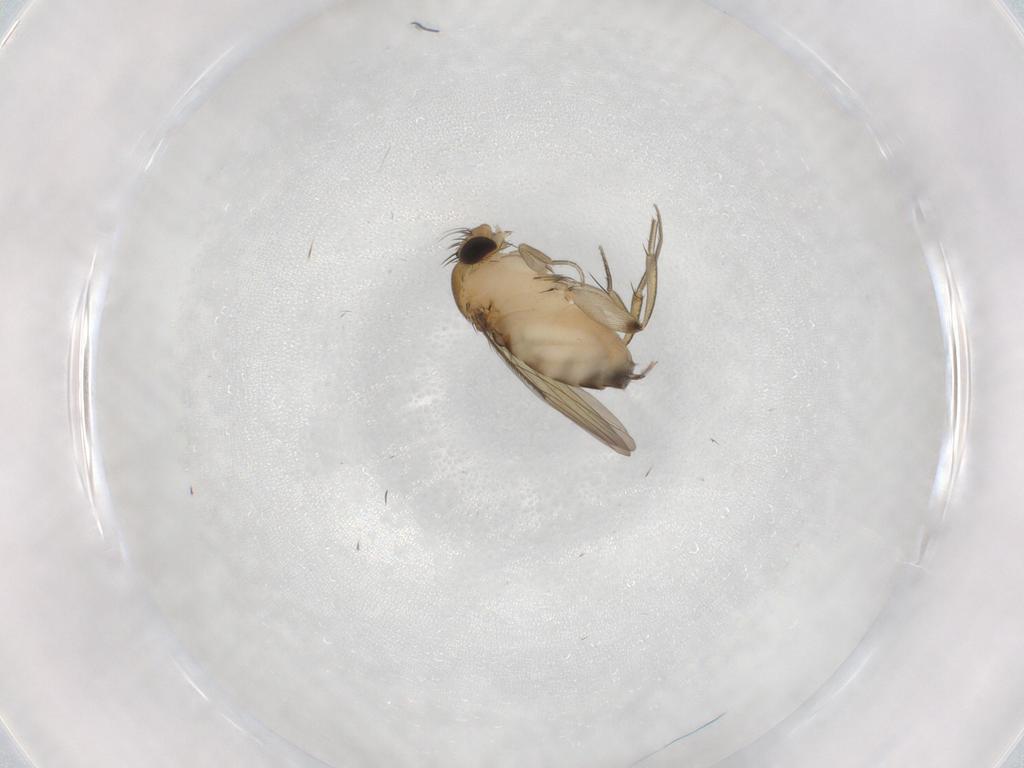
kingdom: Animalia
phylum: Arthropoda
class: Insecta
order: Diptera
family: Phoridae
